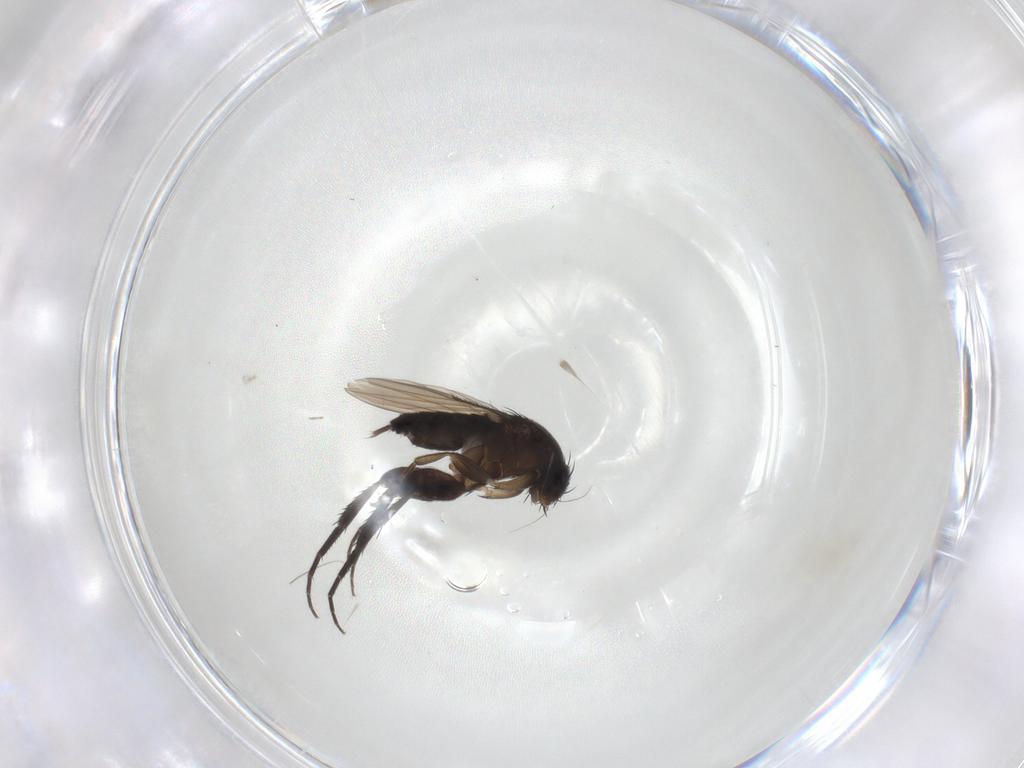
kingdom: Animalia
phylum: Arthropoda
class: Insecta
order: Diptera
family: Phoridae
